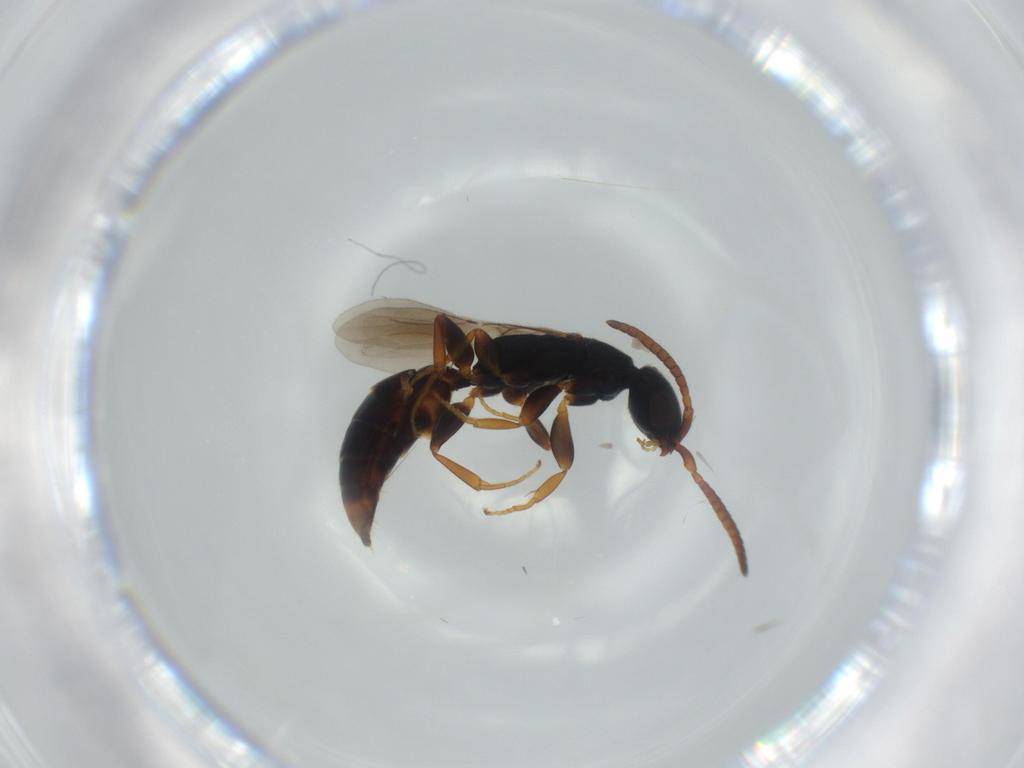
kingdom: Animalia
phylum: Arthropoda
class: Insecta
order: Hymenoptera
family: Bethylidae
